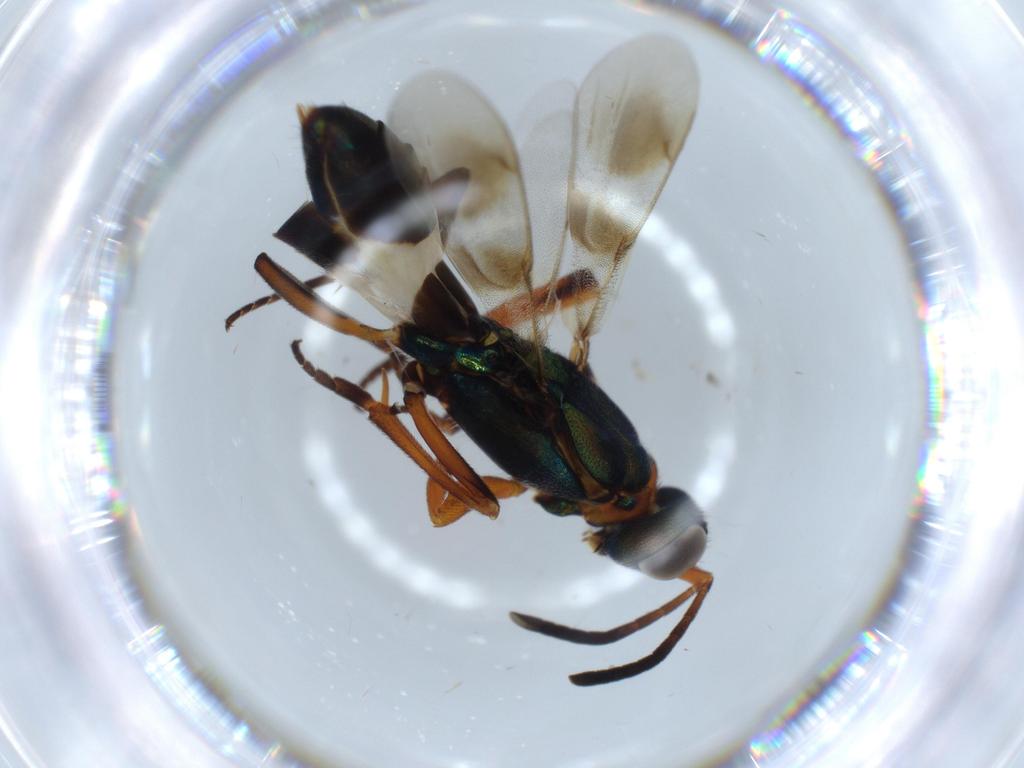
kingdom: Animalia
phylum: Arthropoda
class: Insecta
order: Hymenoptera
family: Eupelmidae
